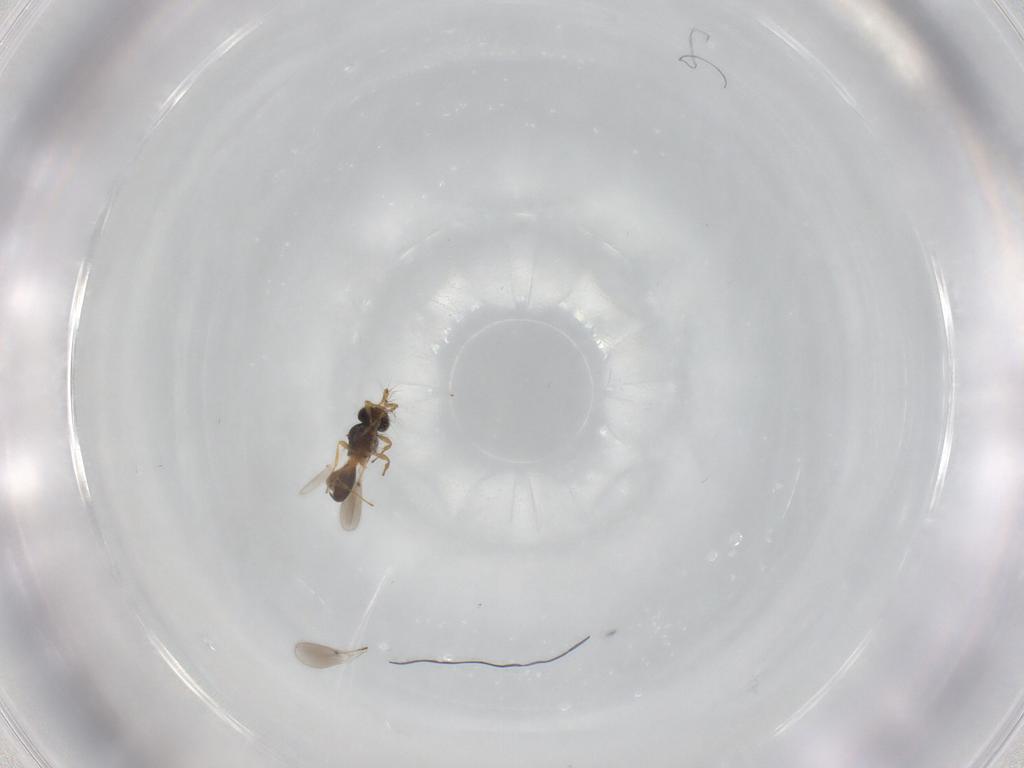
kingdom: Animalia
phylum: Arthropoda
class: Insecta
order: Hymenoptera
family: Platygastridae
